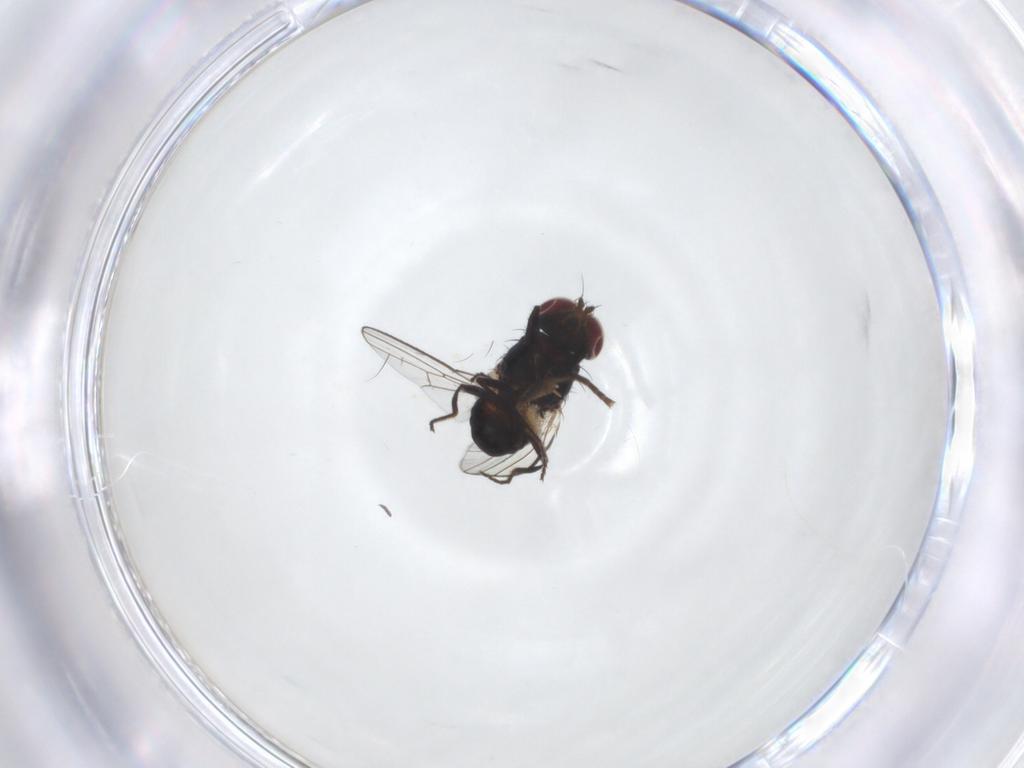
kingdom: Animalia
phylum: Arthropoda
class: Insecta
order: Diptera
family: Carnidae
